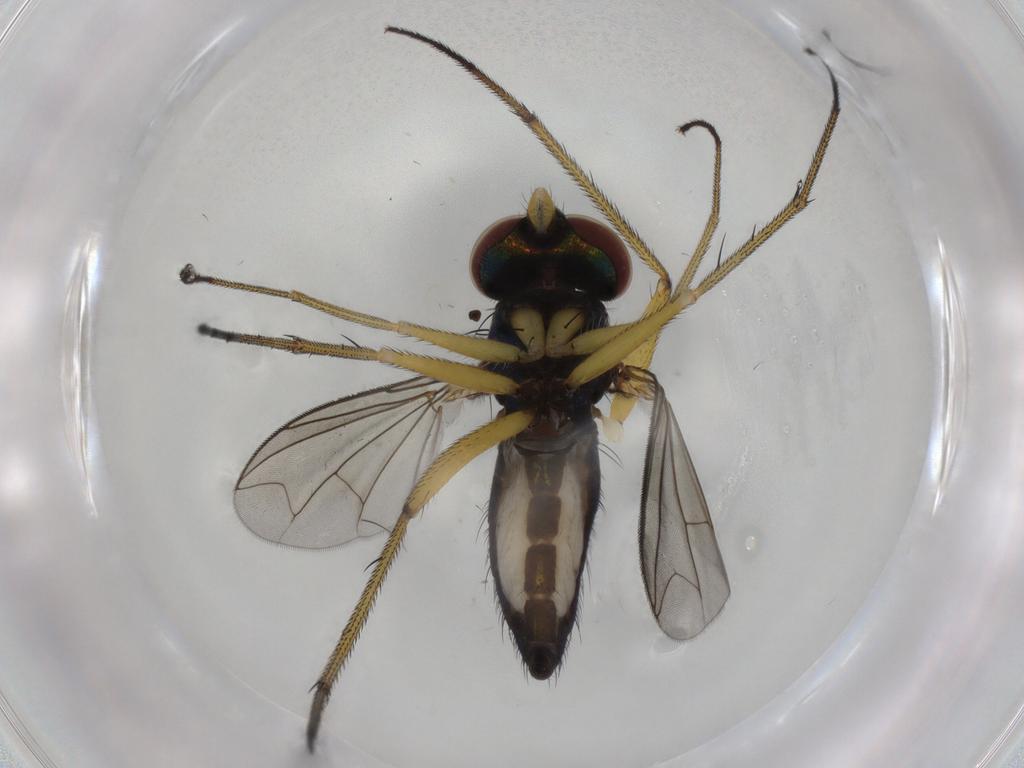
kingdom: Animalia
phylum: Arthropoda
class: Insecta
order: Diptera
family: Dolichopodidae
